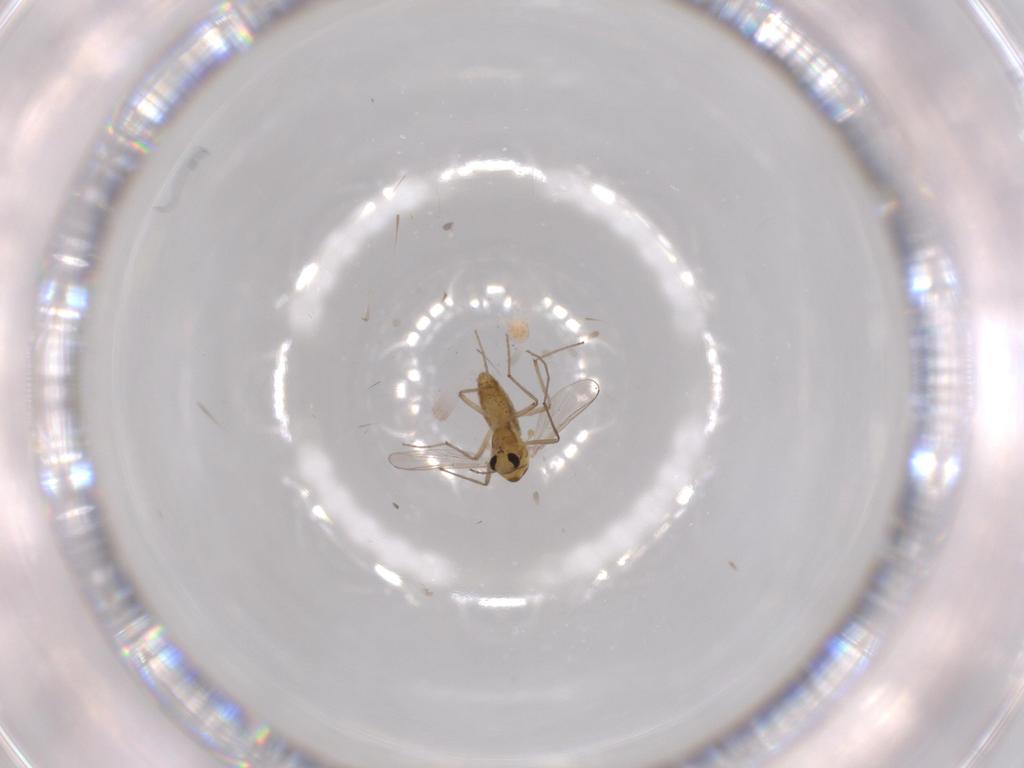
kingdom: Animalia
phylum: Arthropoda
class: Insecta
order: Diptera
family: Chironomidae
